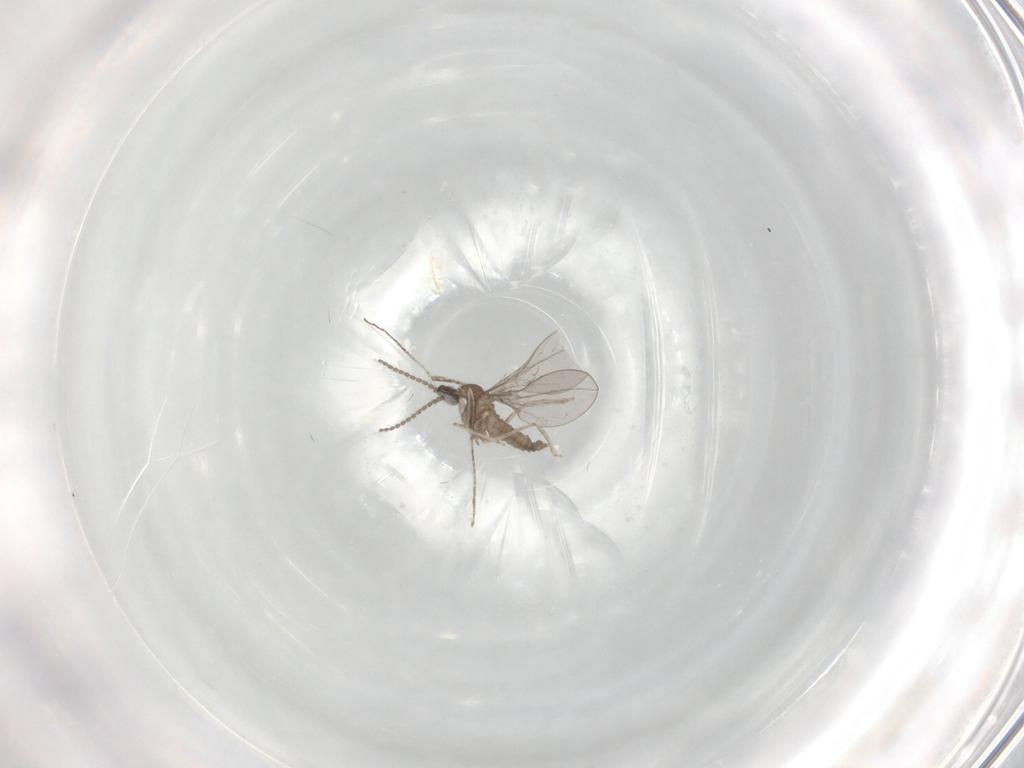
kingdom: Animalia
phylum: Arthropoda
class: Insecta
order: Diptera
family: Cecidomyiidae
